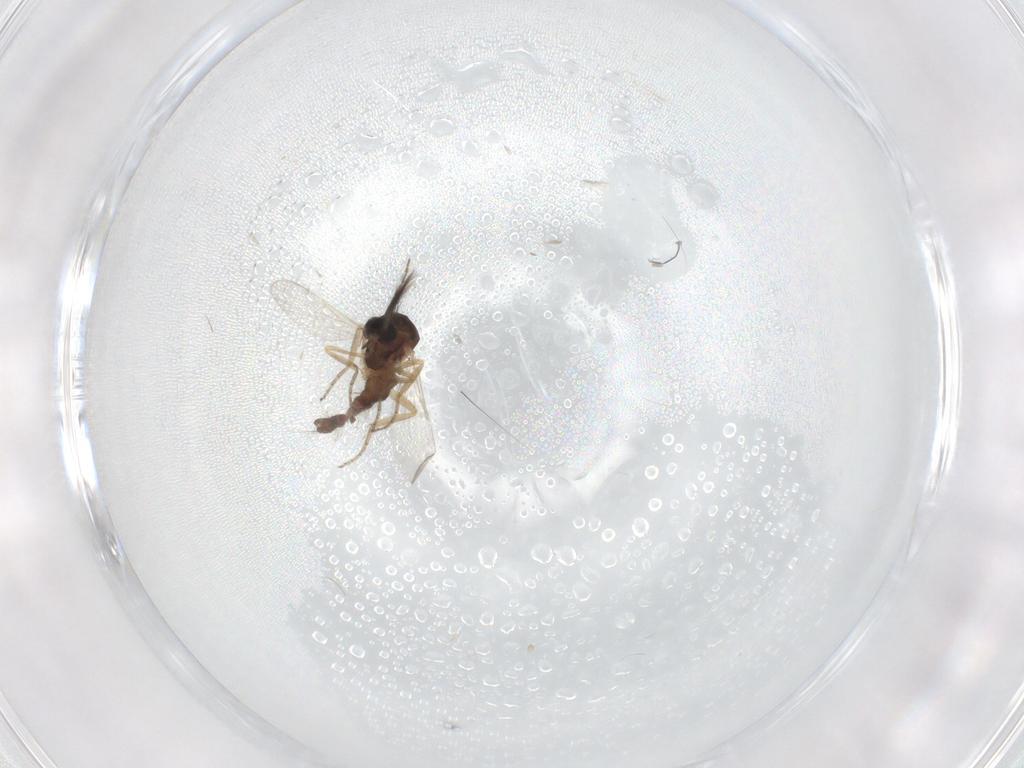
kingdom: Animalia
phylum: Arthropoda
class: Insecta
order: Diptera
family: Ceratopogonidae
